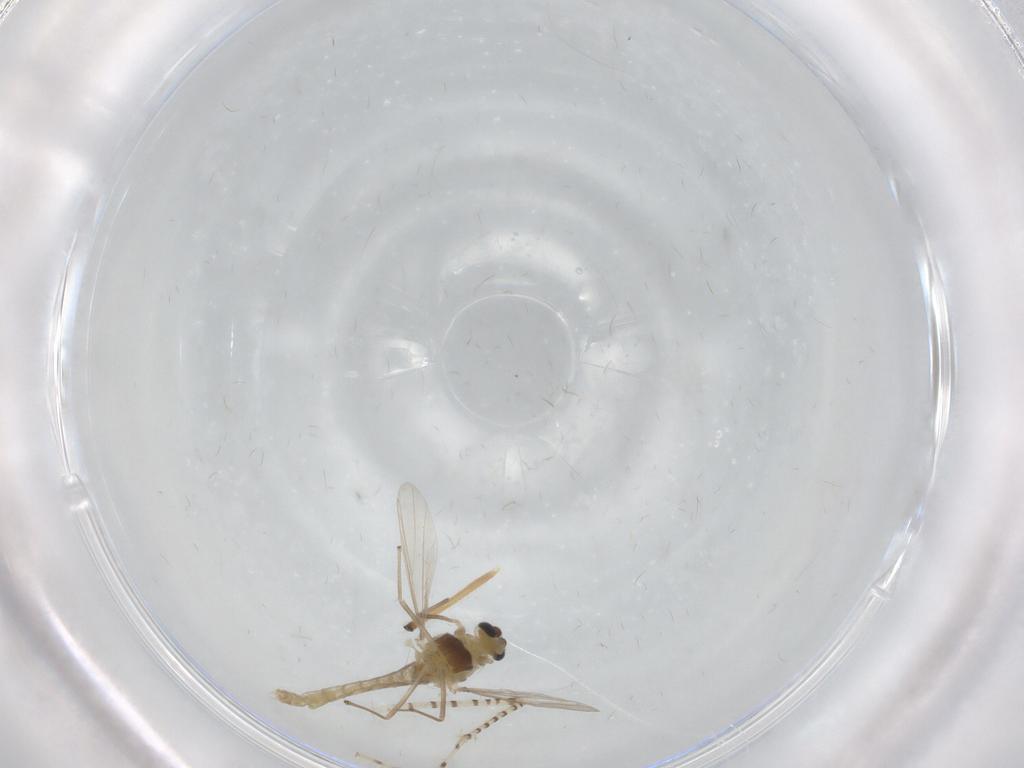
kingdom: Animalia
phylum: Arthropoda
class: Insecta
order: Diptera
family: Chironomidae
